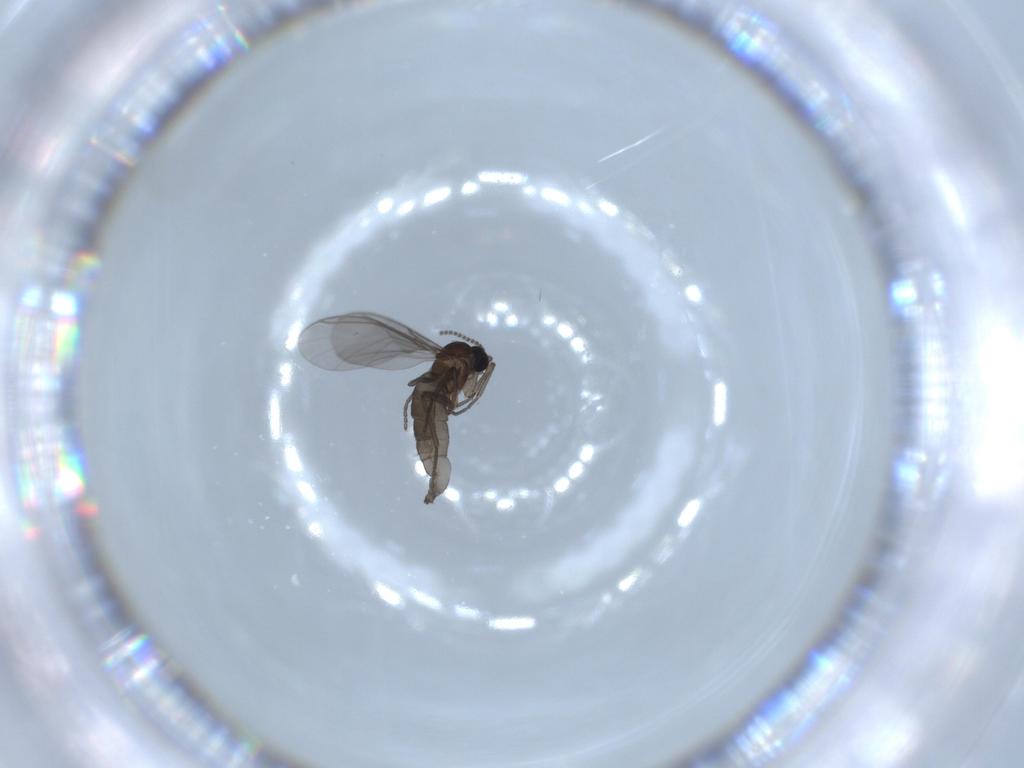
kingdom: Animalia
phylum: Arthropoda
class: Insecta
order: Diptera
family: Cecidomyiidae
